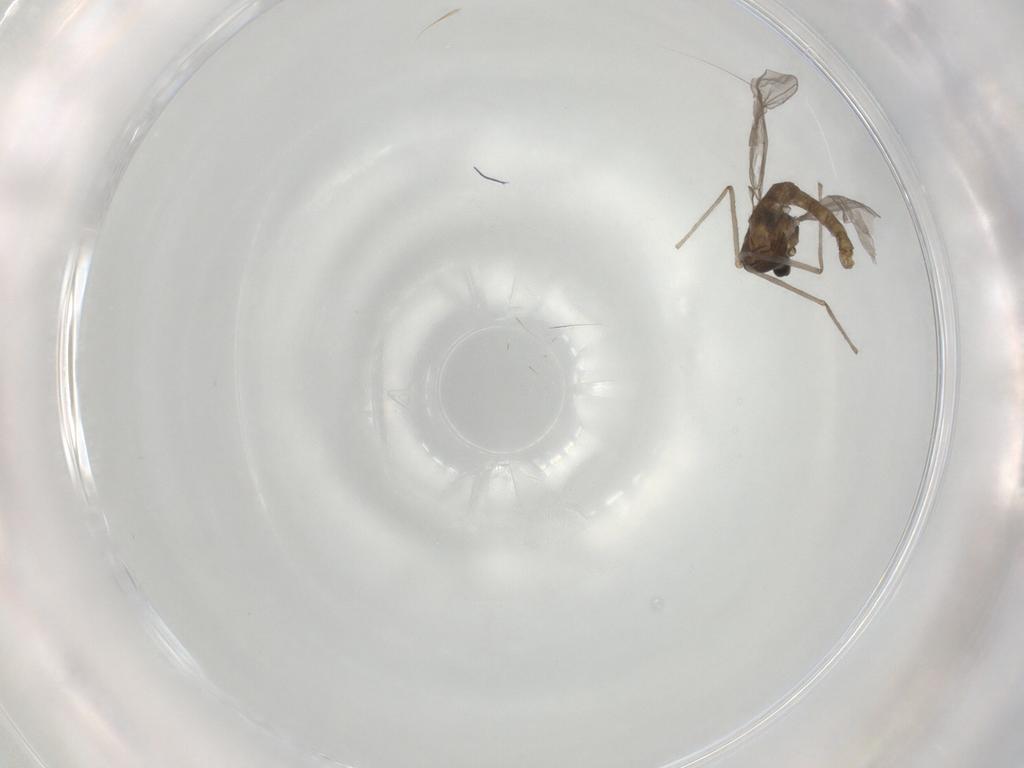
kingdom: Animalia
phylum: Arthropoda
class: Insecta
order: Diptera
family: Chironomidae
